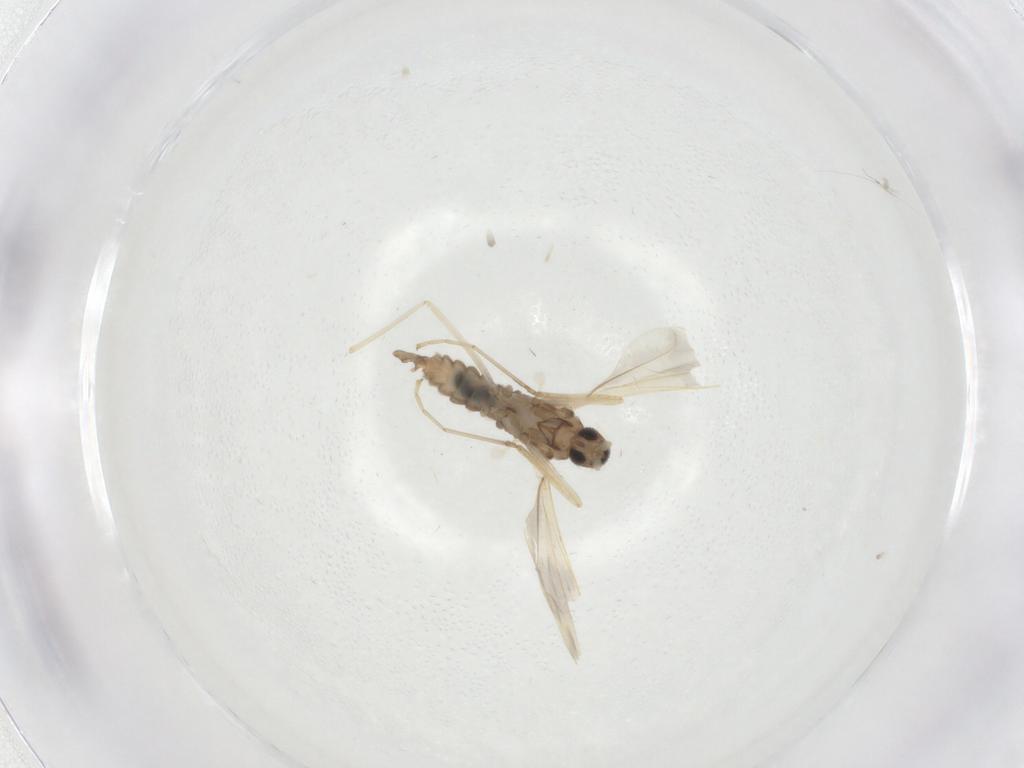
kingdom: Animalia
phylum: Arthropoda
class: Insecta
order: Diptera
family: Cecidomyiidae
